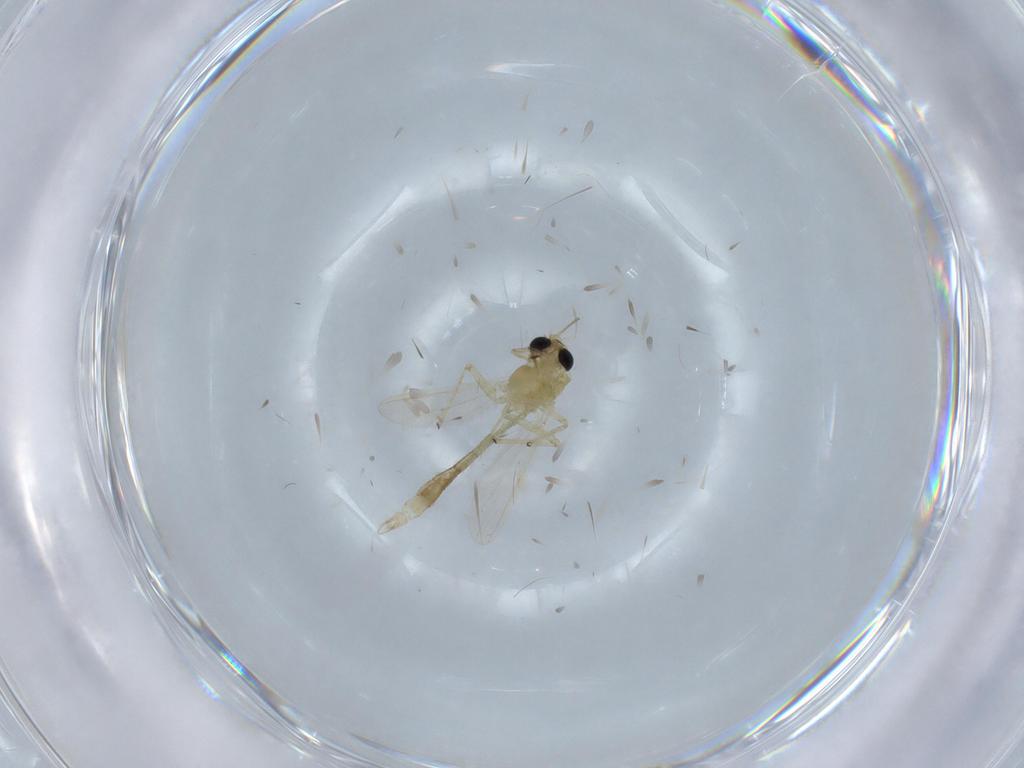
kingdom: Animalia
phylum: Arthropoda
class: Insecta
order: Diptera
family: Chironomidae
